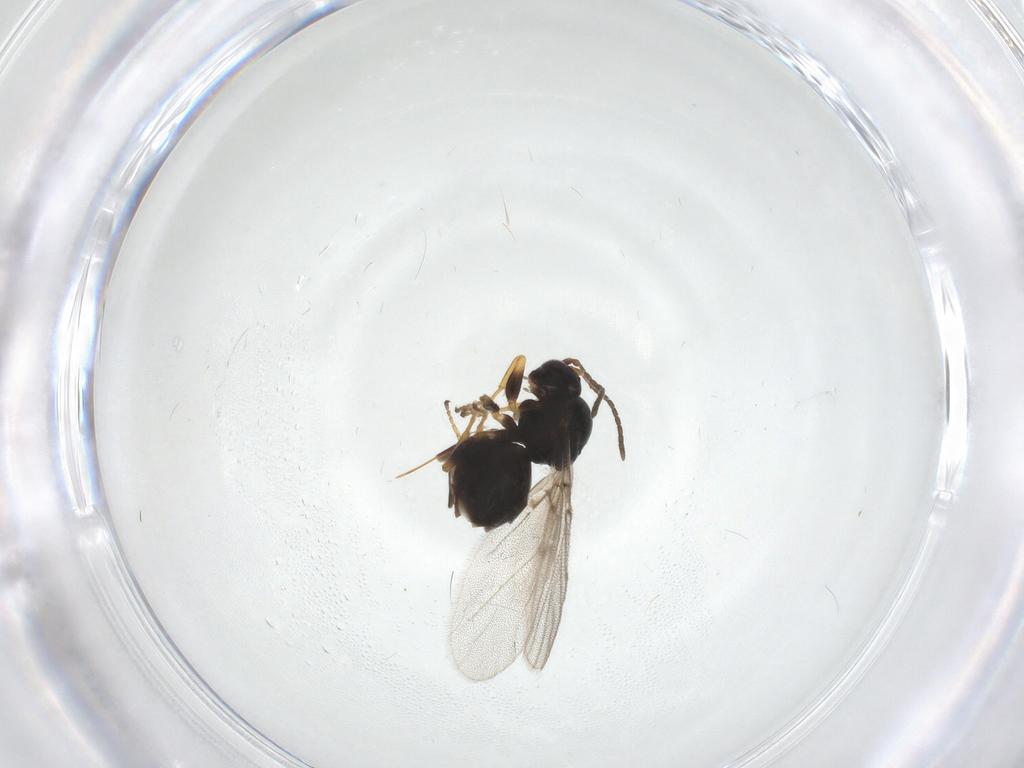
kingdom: Animalia
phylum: Arthropoda
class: Insecta
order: Hymenoptera
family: Cynipidae
